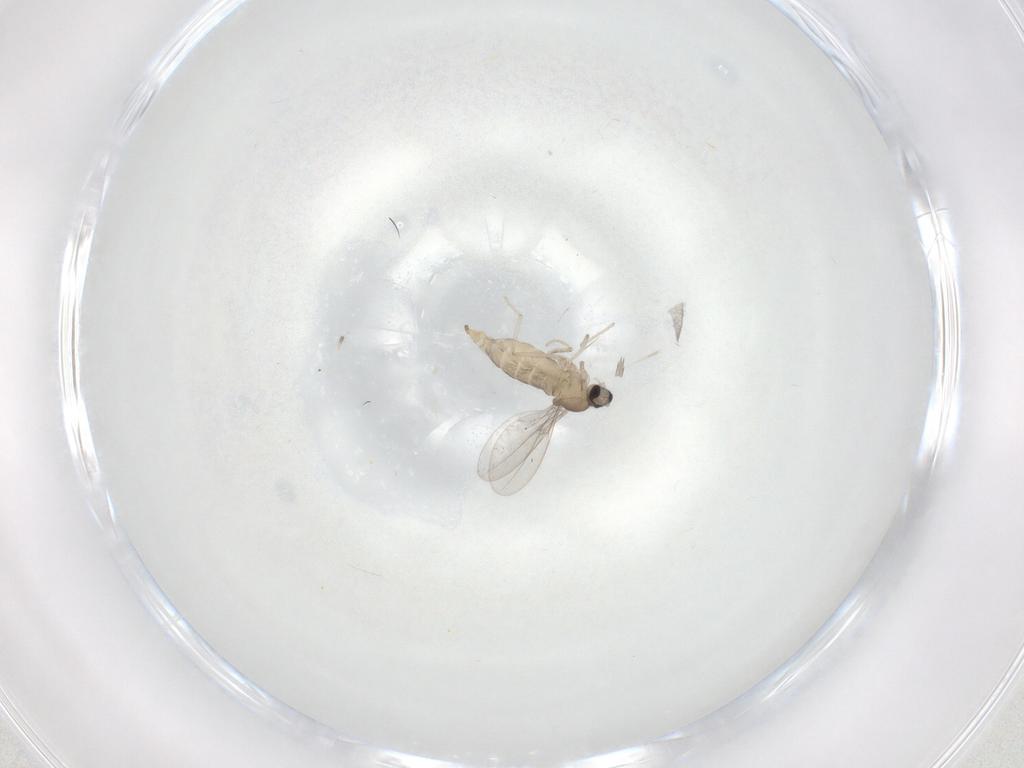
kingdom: Animalia
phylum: Arthropoda
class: Insecta
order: Diptera
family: Cecidomyiidae
